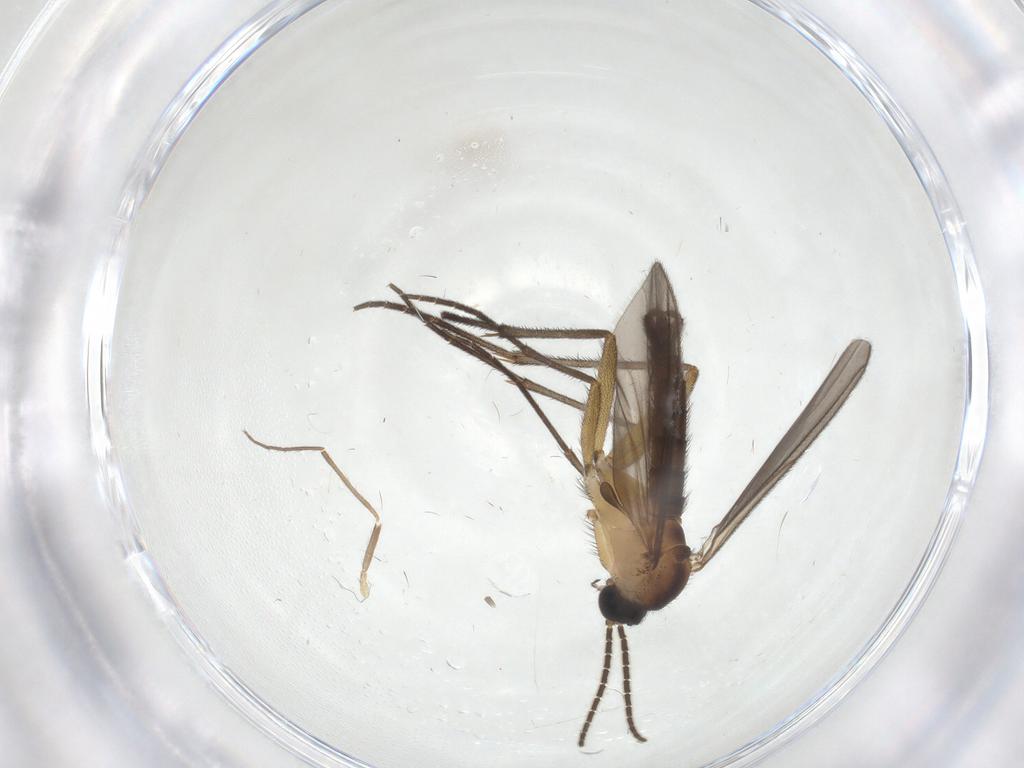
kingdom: Animalia
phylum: Arthropoda
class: Insecta
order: Diptera
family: Sciaridae
